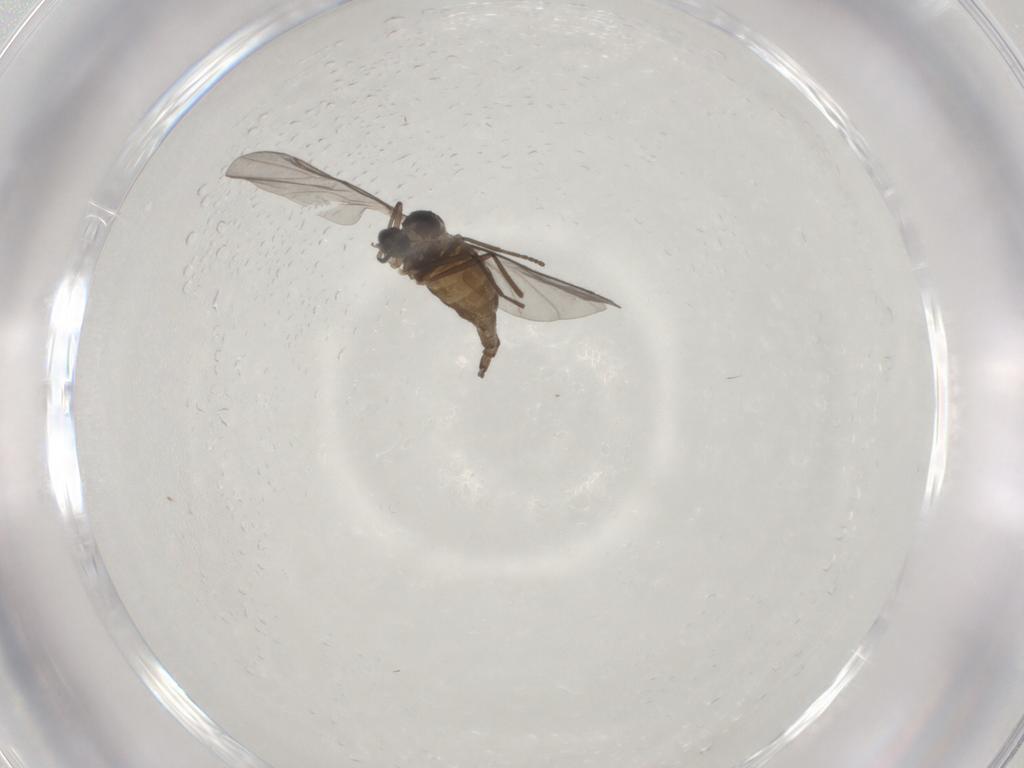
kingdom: Animalia
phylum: Arthropoda
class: Insecta
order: Diptera
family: Cecidomyiidae
